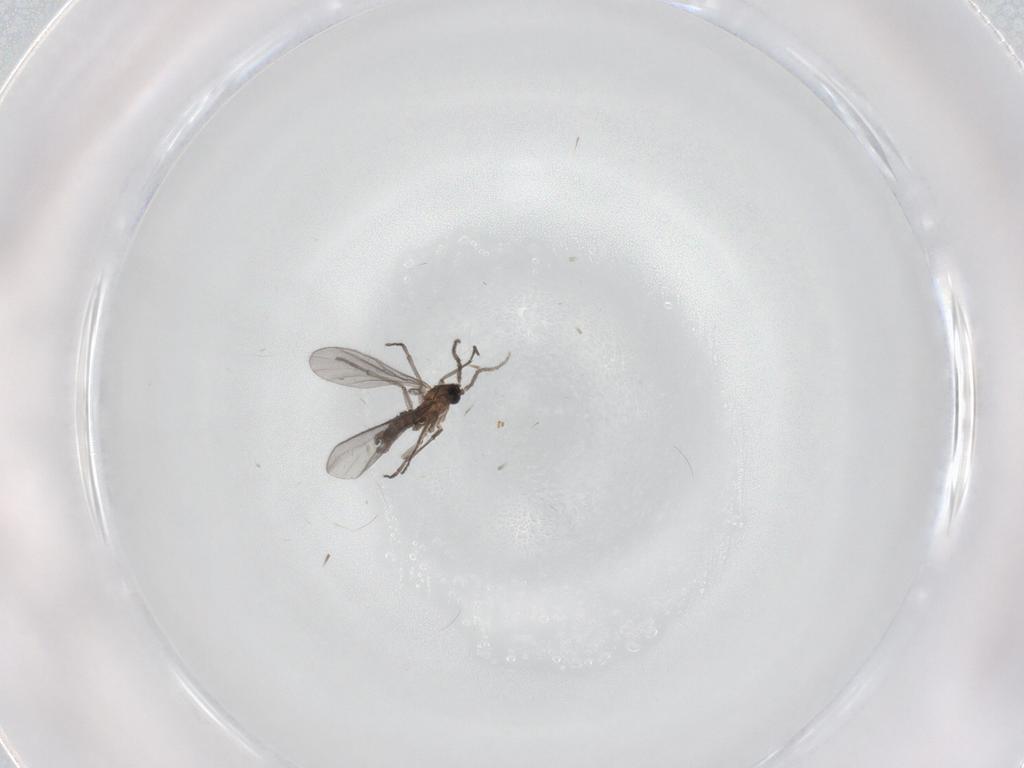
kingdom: Animalia
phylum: Arthropoda
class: Insecta
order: Diptera
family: Sciaridae
